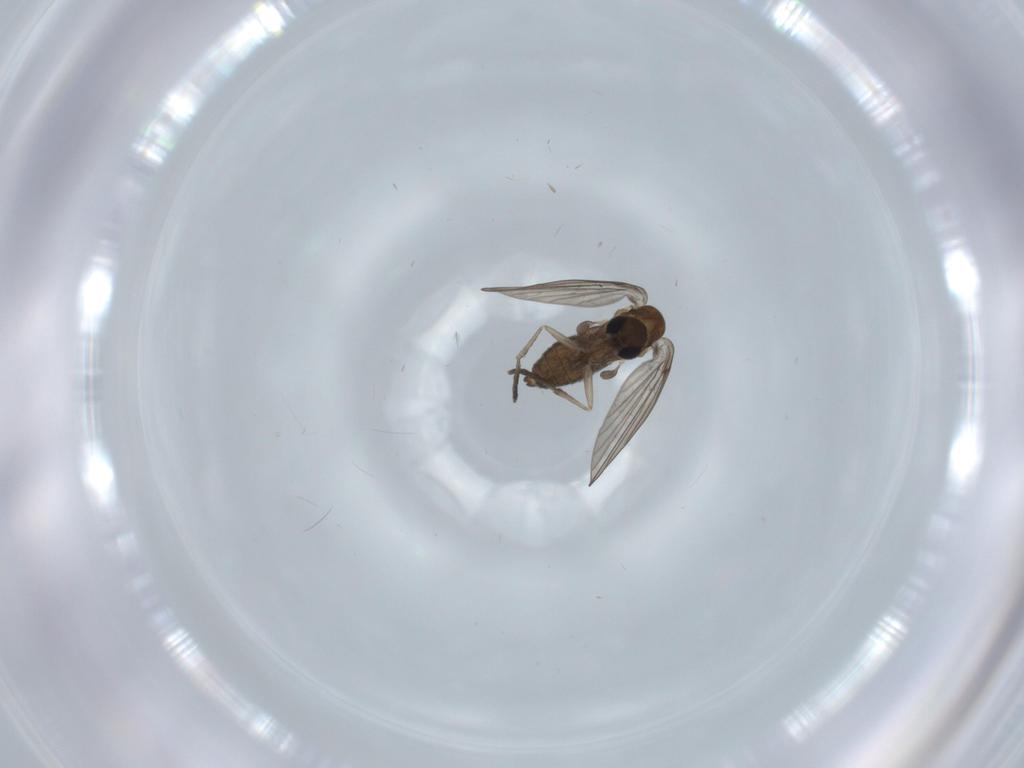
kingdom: Animalia
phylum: Arthropoda
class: Insecta
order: Diptera
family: Psychodidae
